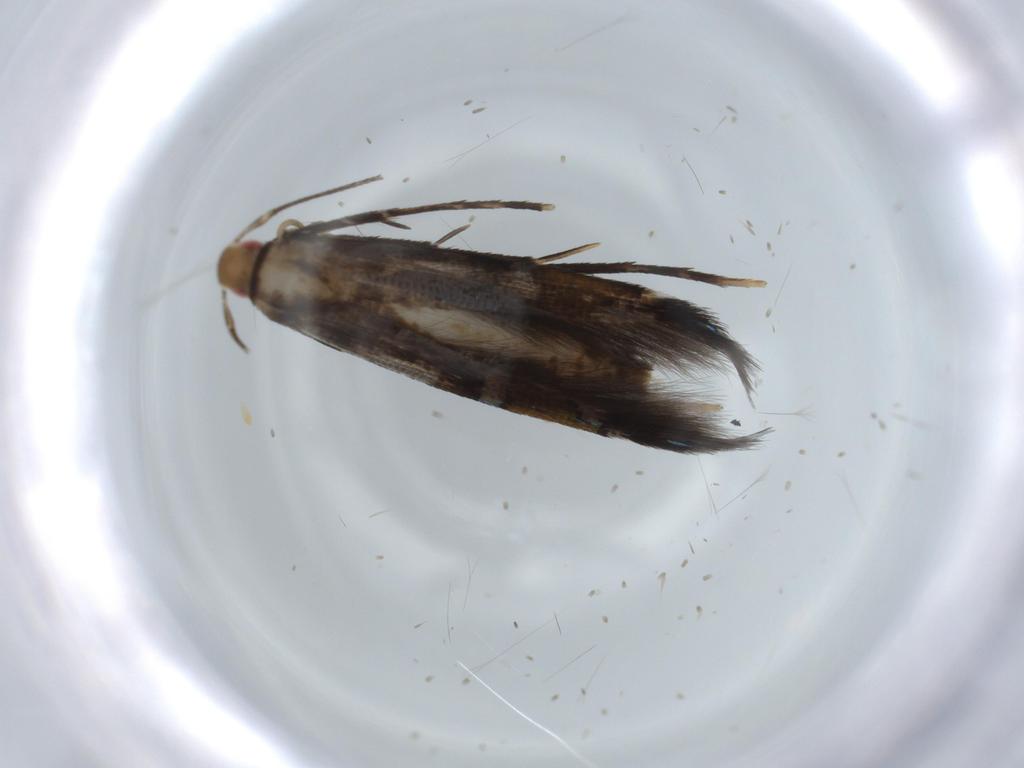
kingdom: Animalia
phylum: Arthropoda
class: Insecta
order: Lepidoptera
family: Cosmopterigidae
